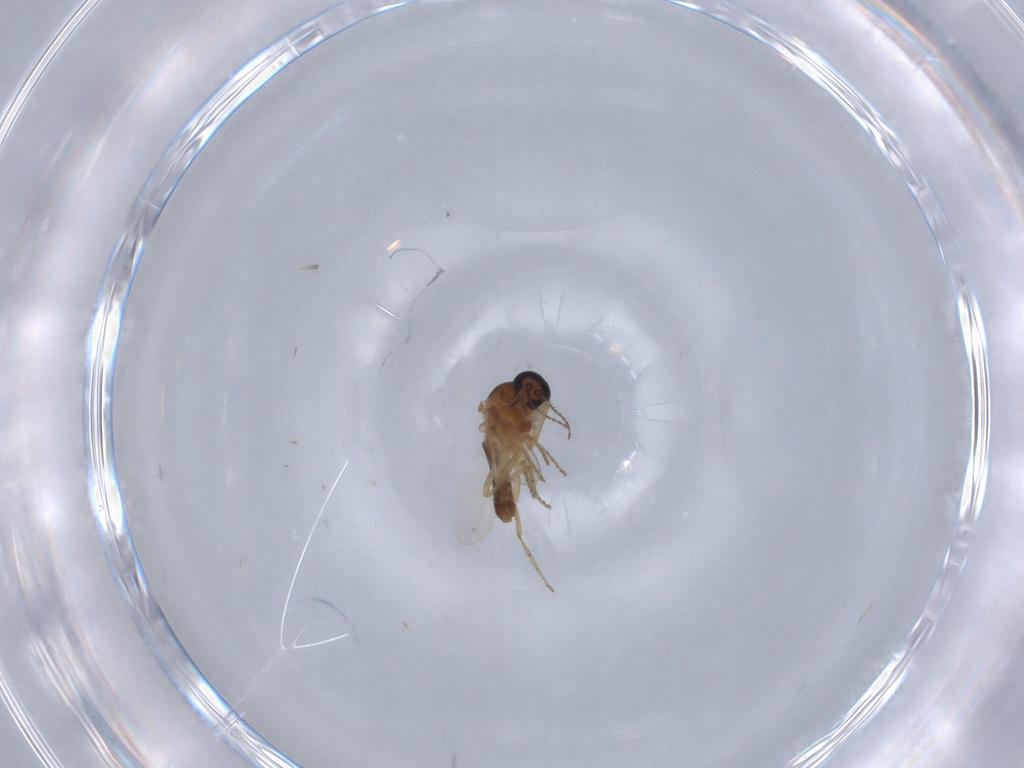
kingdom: Animalia
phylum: Arthropoda
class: Insecta
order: Diptera
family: Ceratopogonidae
